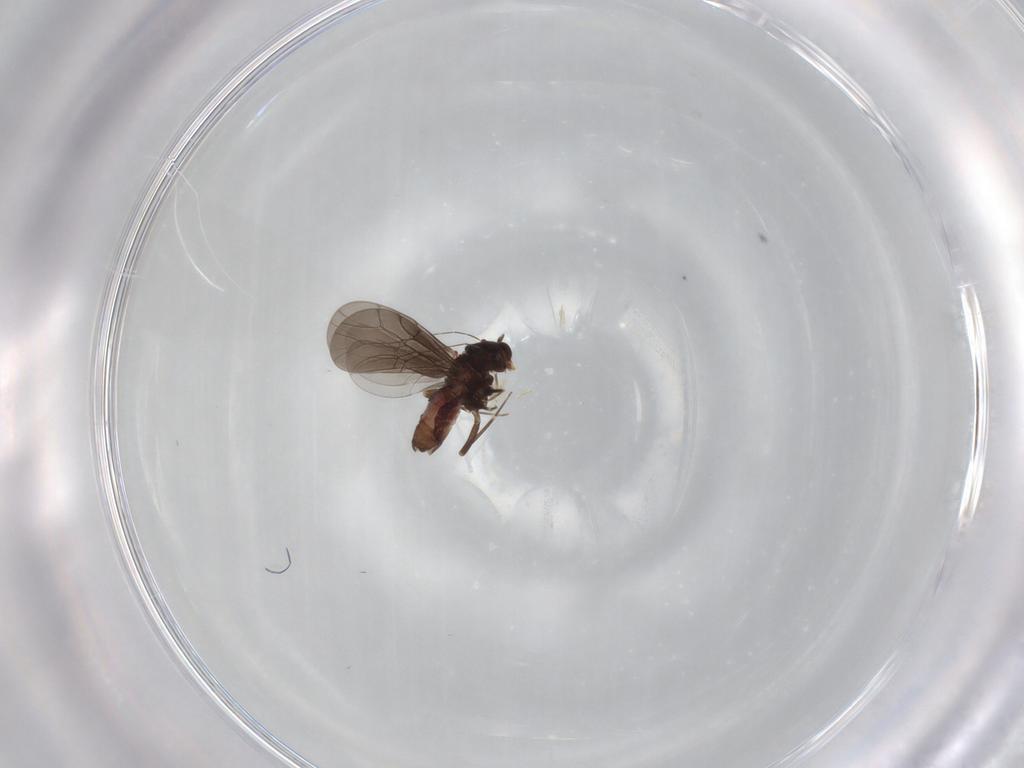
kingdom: Animalia
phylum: Arthropoda
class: Insecta
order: Psocodea
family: Lepidopsocidae
